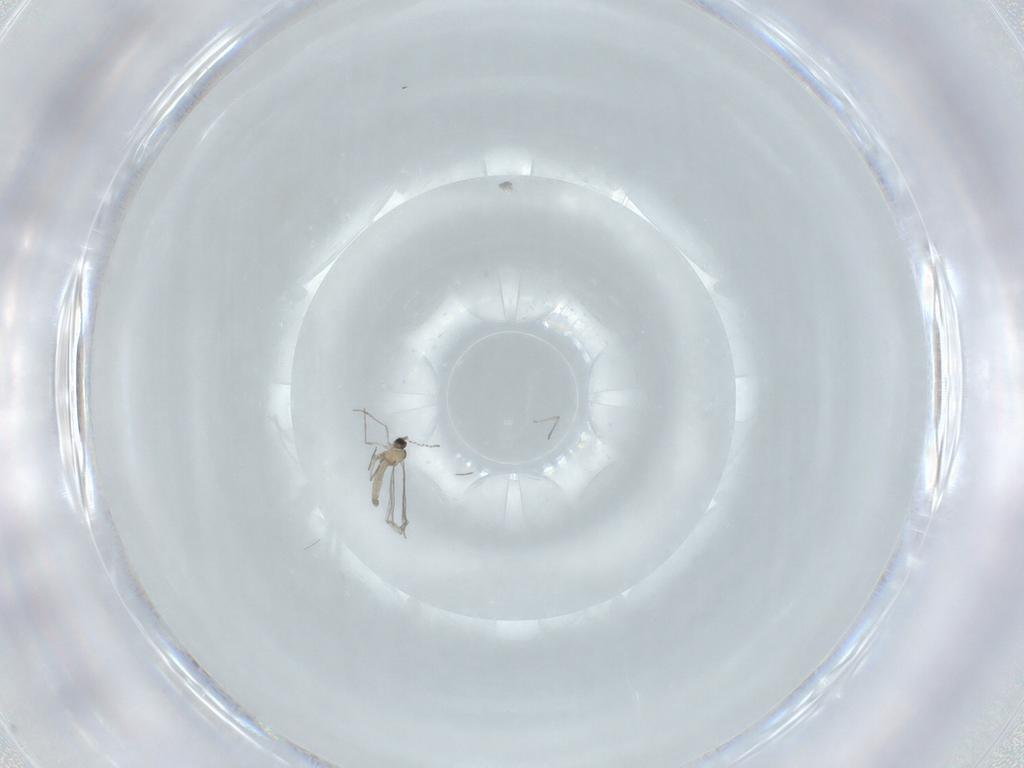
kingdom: Animalia
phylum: Arthropoda
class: Insecta
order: Diptera
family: Cecidomyiidae
